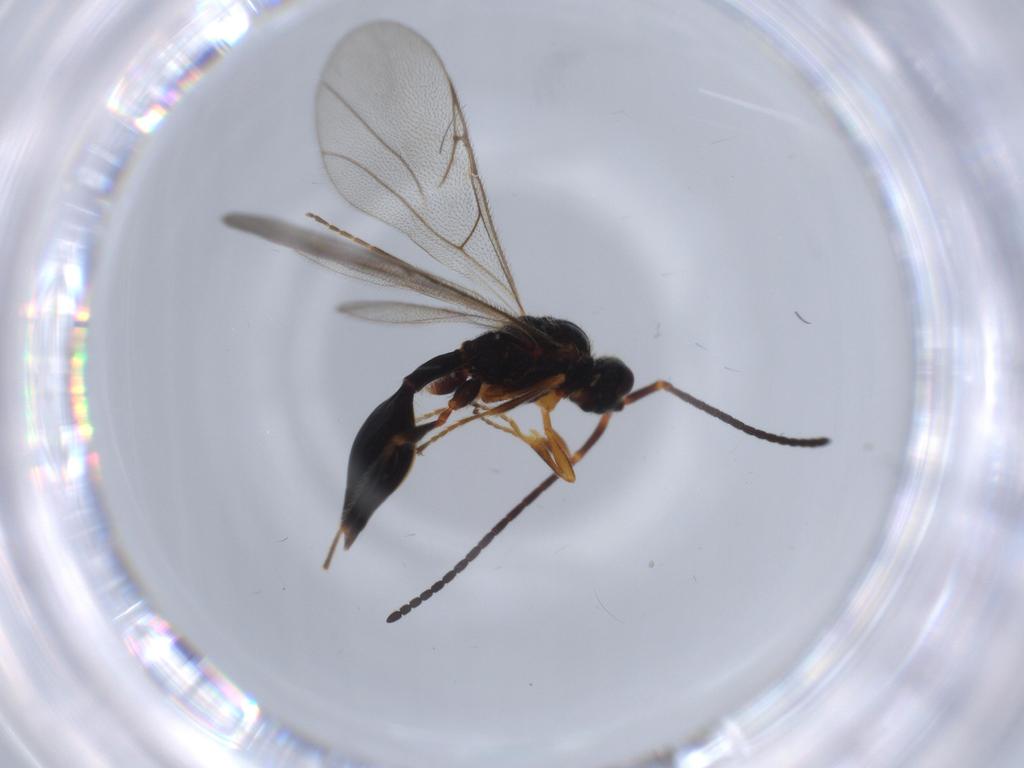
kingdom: Animalia
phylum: Arthropoda
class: Insecta
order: Hymenoptera
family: Diapriidae
